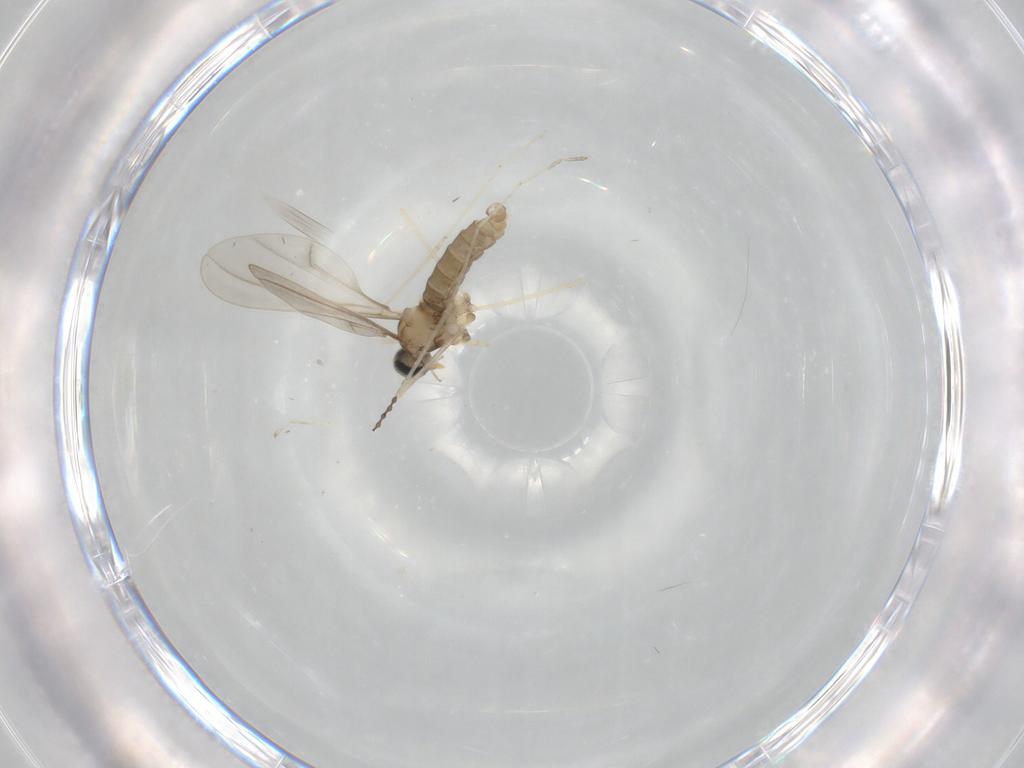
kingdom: Animalia
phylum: Arthropoda
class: Insecta
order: Diptera
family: Cecidomyiidae
